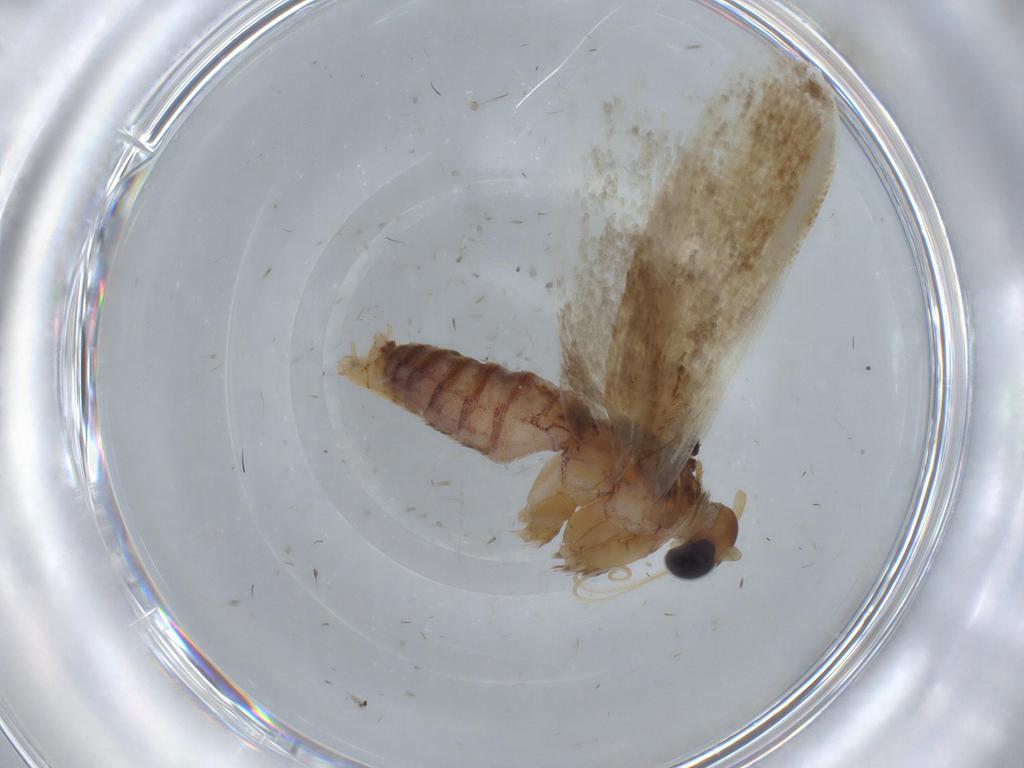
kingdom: Animalia
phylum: Arthropoda
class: Insecta
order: Lepidoptera
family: Blastobasidae
